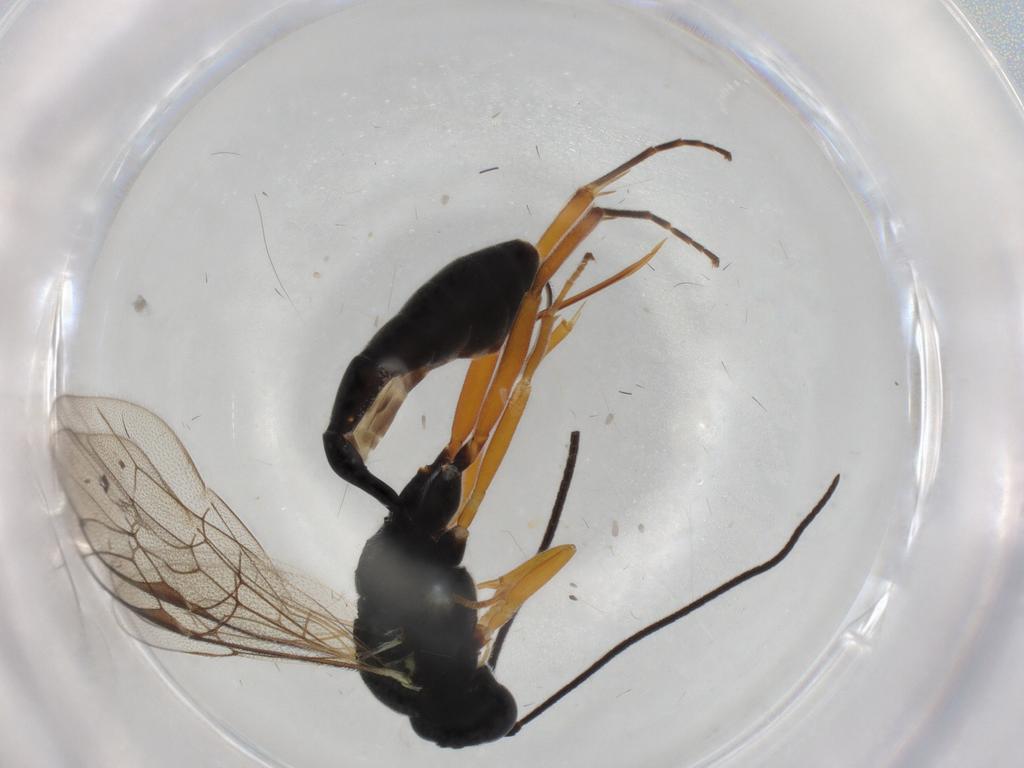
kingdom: Animalia
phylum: Arthropoda
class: Insecta
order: Hymenoptera
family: Ichneumonidae
